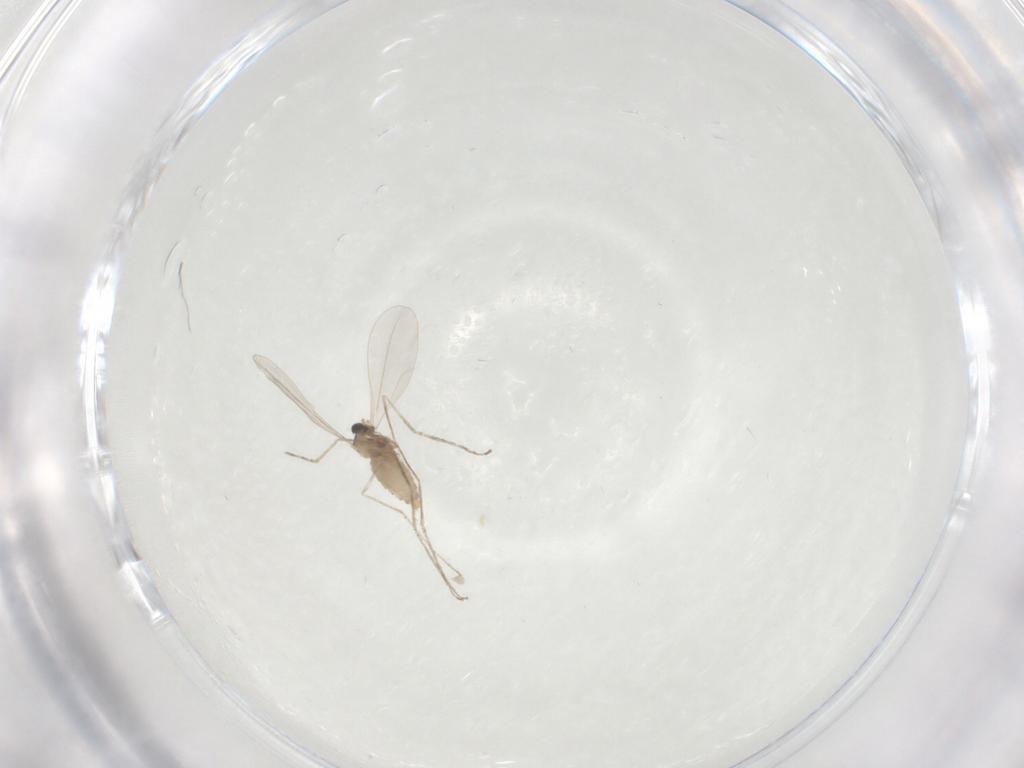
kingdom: Animalia
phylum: Arthropoda
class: Insecta
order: Diptera
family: Cecidomyiidae
